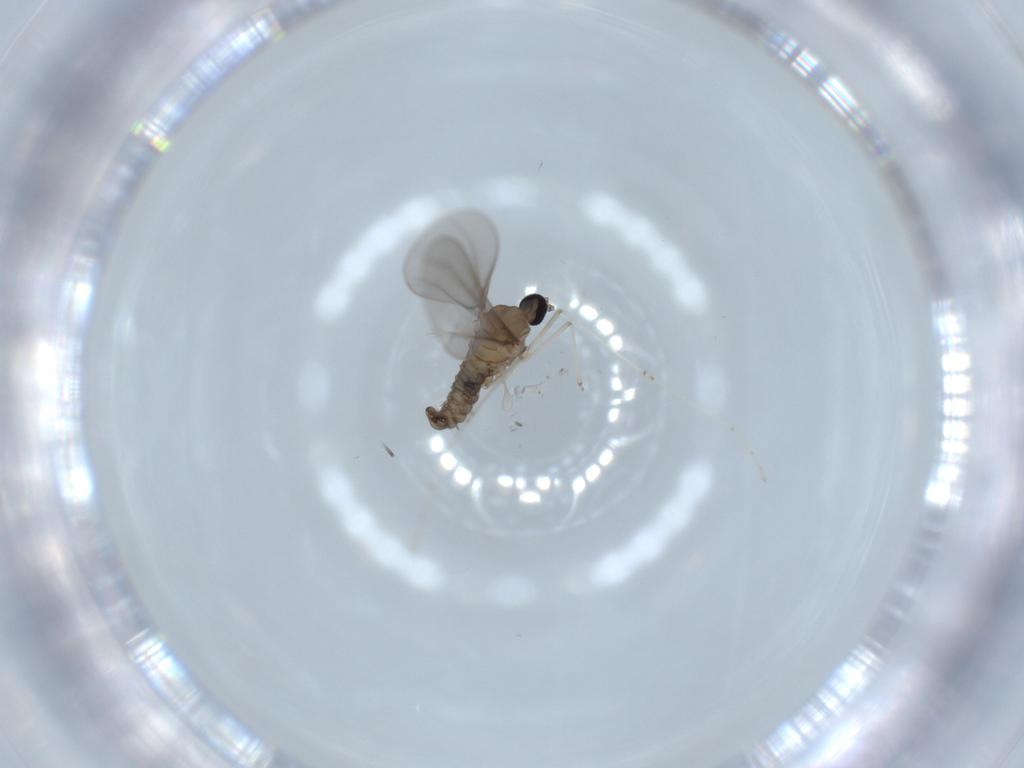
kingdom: Animalia
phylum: Arthropoda
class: Insecta
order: Diptera
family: Cecidomyiidae
